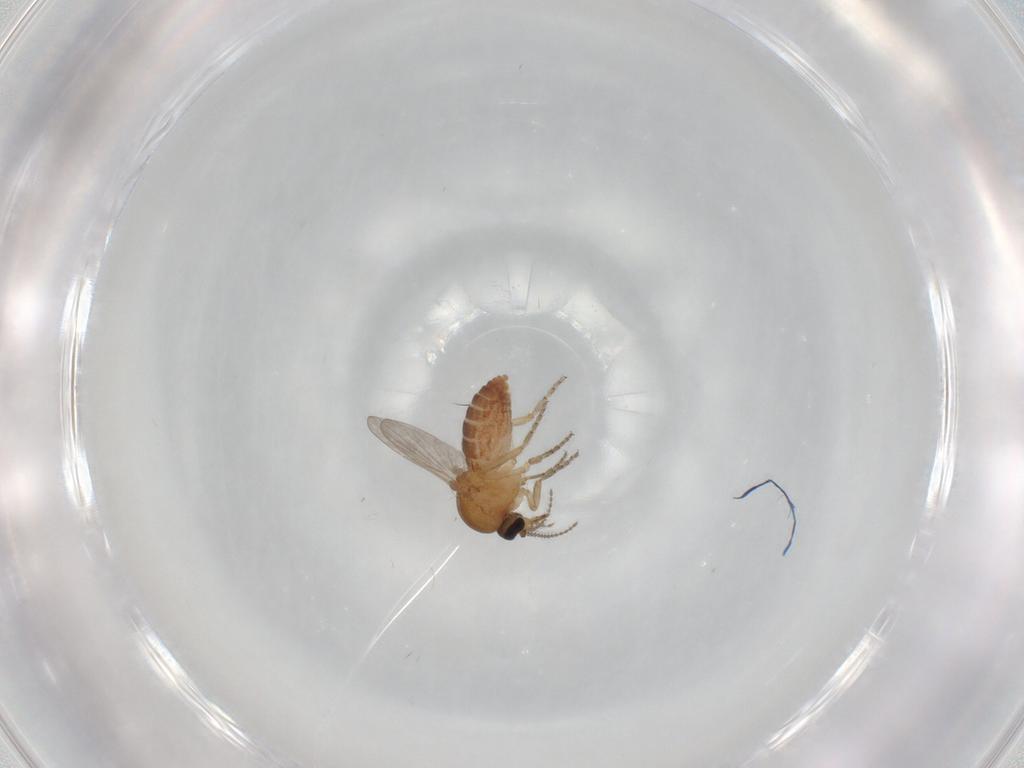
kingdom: Animalia
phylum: Arthropoda
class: Insecta
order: Diptera
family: Ceratopogonidae
